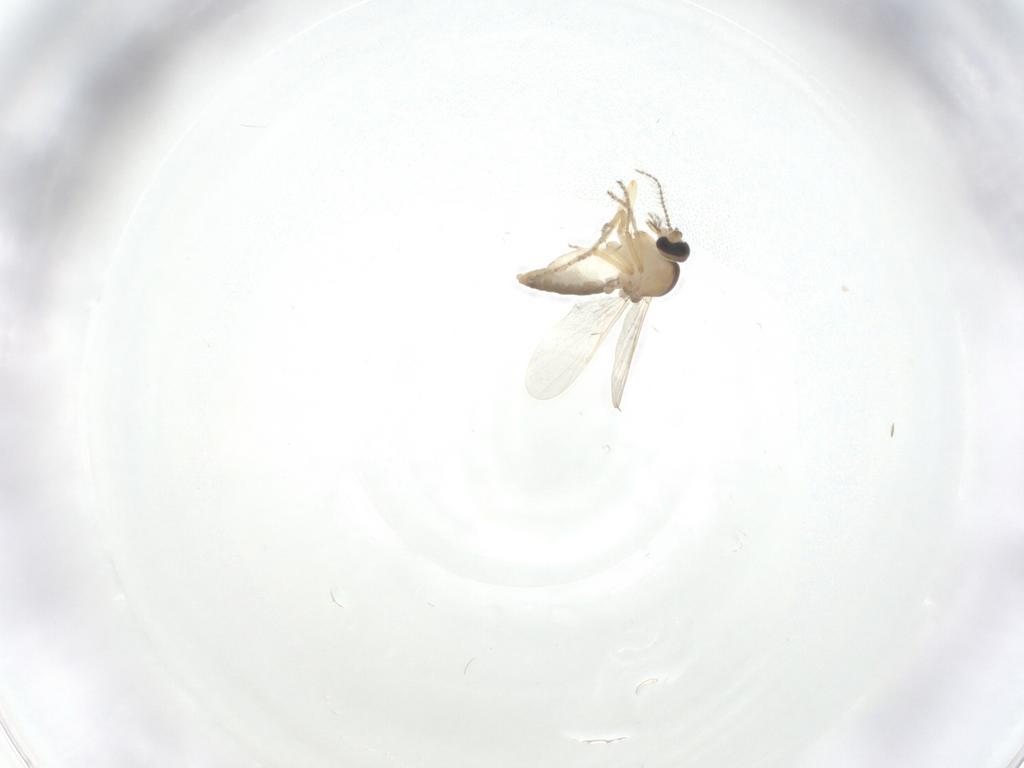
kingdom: Animalia
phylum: Arthropoda
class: Insecta
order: Diptera
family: Ceratopogonidae
